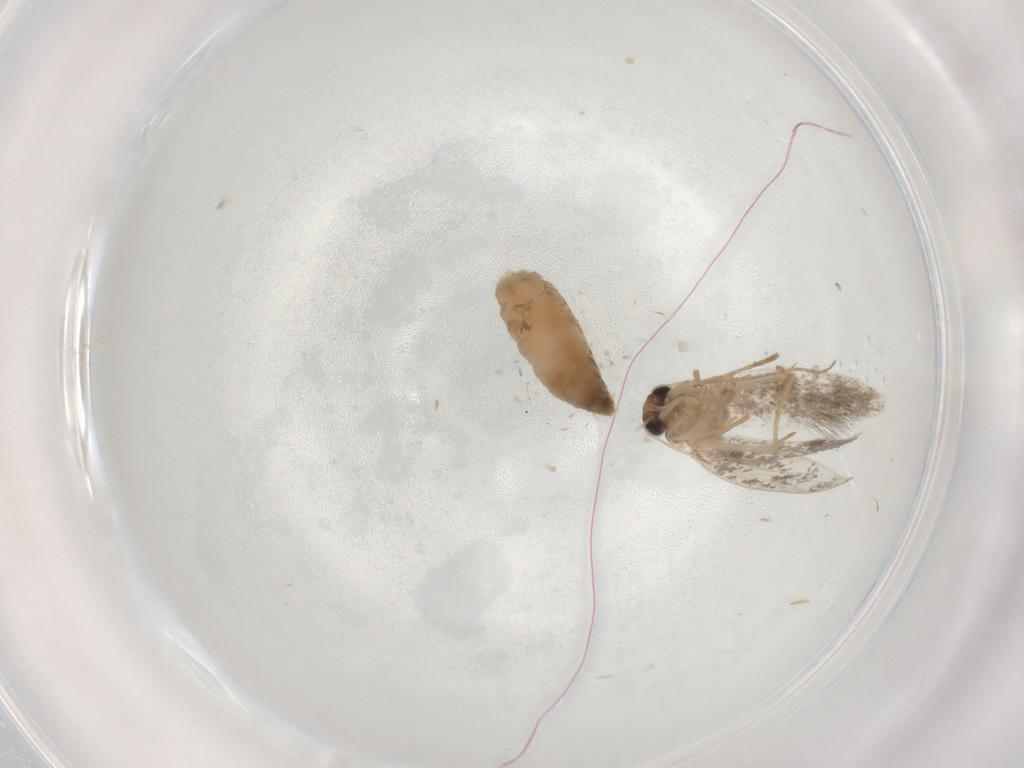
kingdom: Animalia
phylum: Arthropoda
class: Insecta
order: Lepidoptera
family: Tineidae
